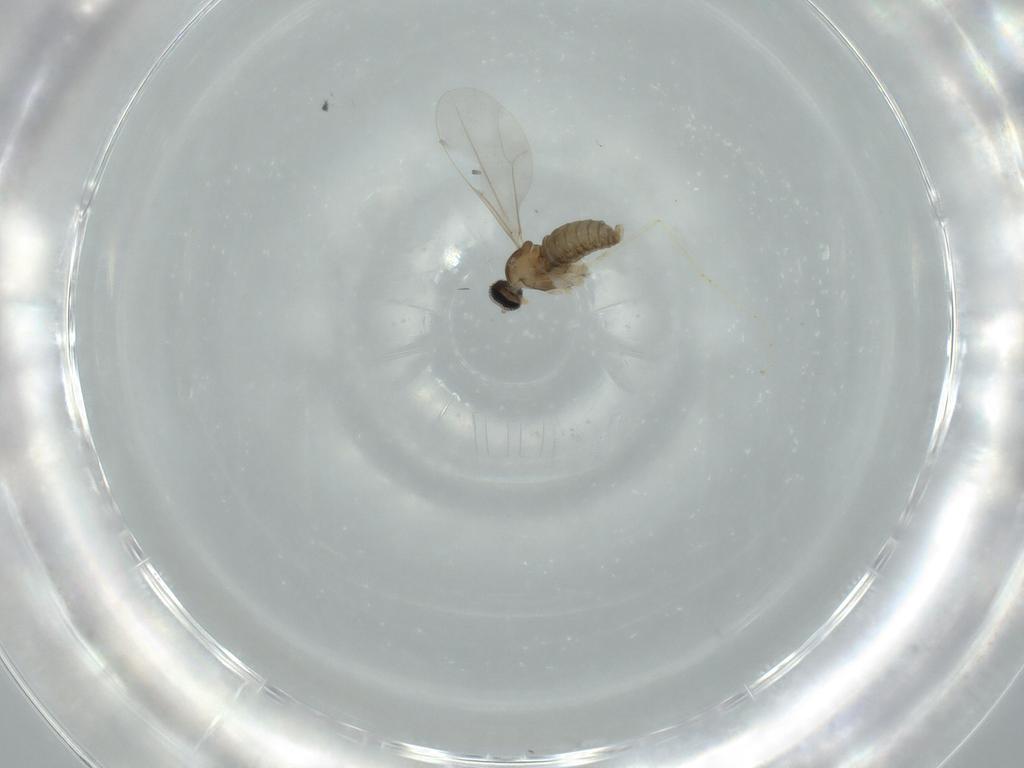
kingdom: Animalia
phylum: Arthropoda
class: Insecta
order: Diptera
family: Cecidomyiidae
